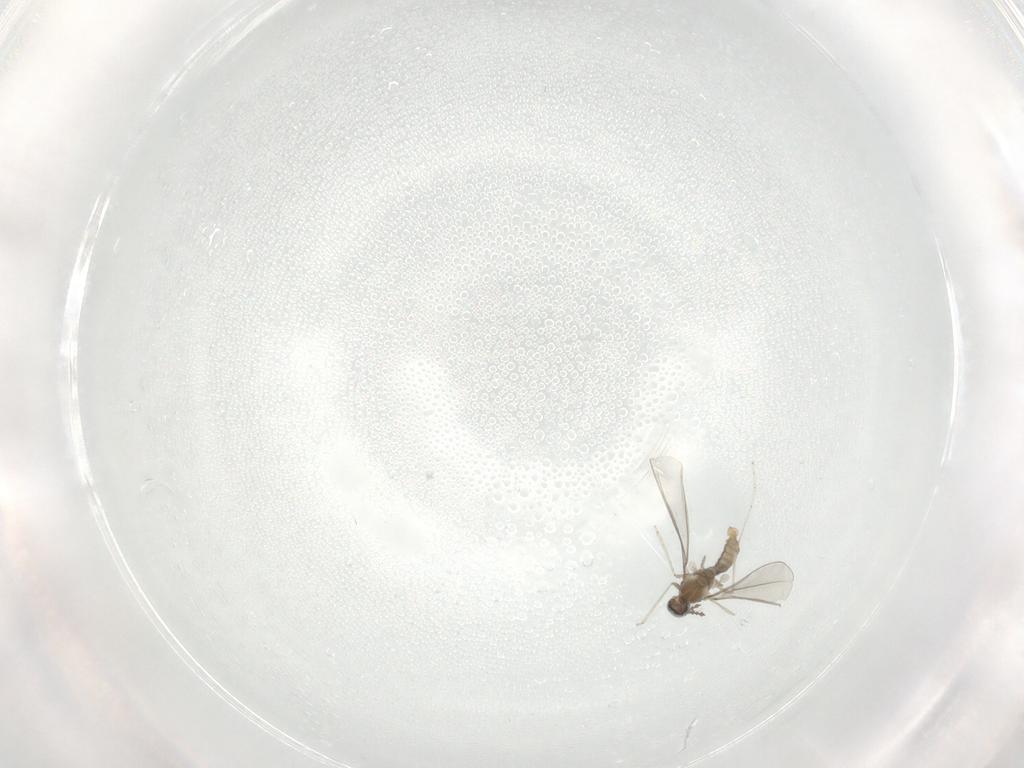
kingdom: Animalia
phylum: Arthropoda
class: Insecta
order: Diptera
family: Cecidomyiidae
